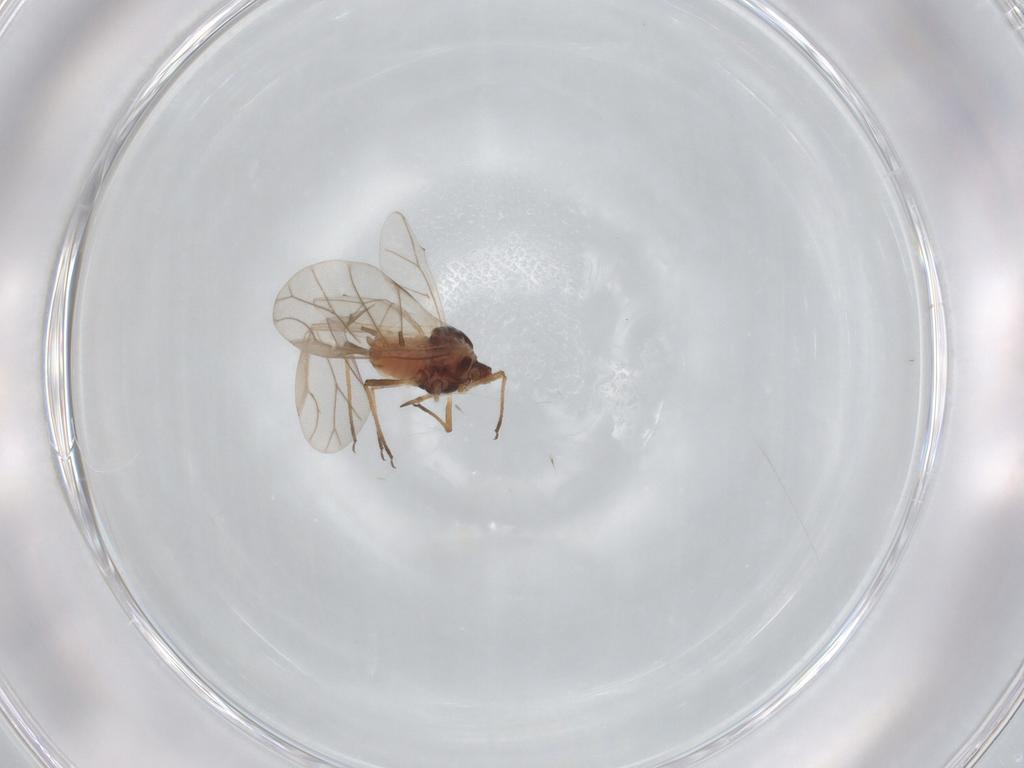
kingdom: Animalia
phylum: Arthropoda
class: Insecta
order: Hemiptera
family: Aphididae
